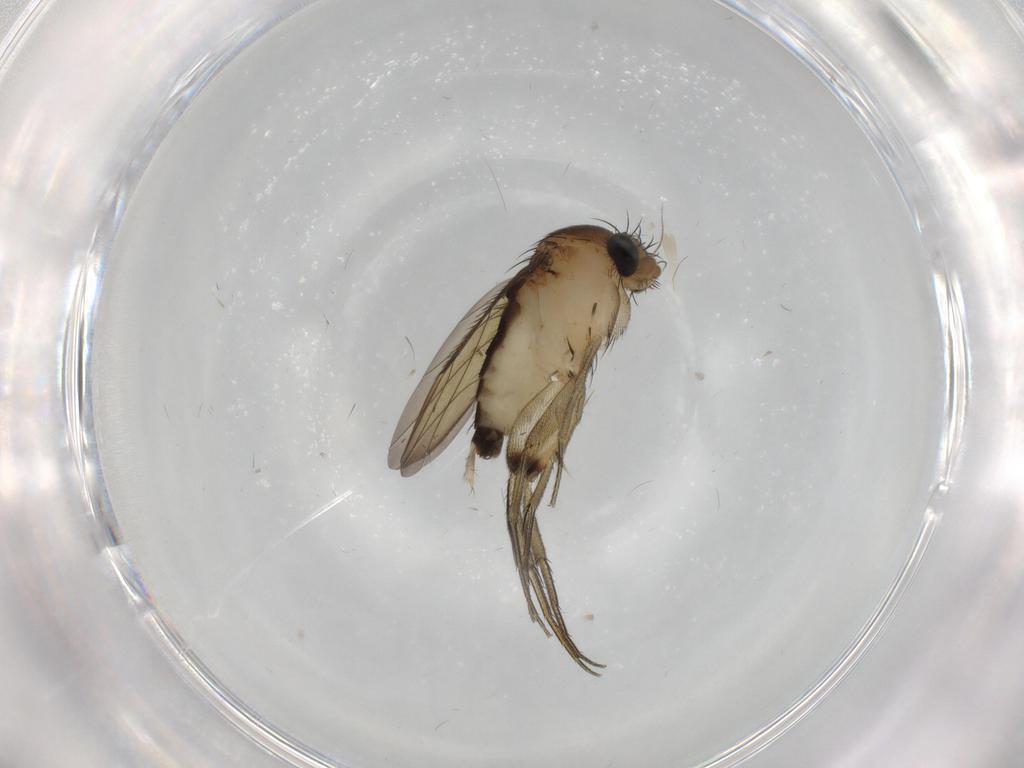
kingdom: Animalia
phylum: Arthropoda
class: Insecta
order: Diptera
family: Phoridae
